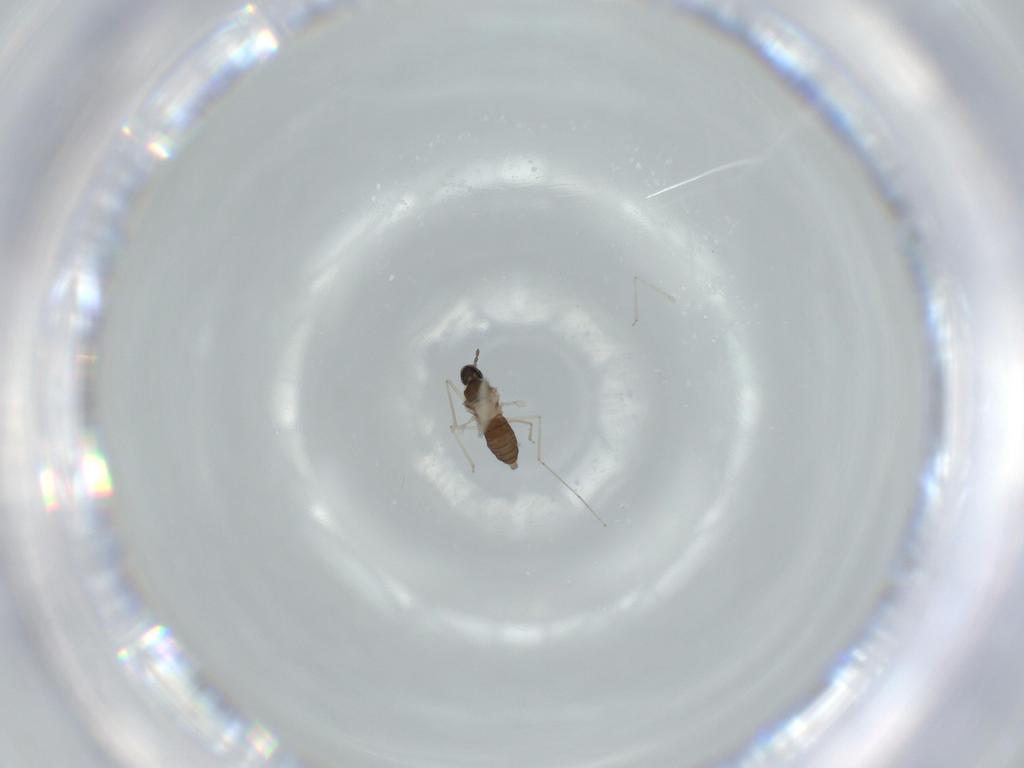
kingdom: Animalia
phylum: Arthropoda
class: Insecta
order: Diptera
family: Cecidomyiidae
